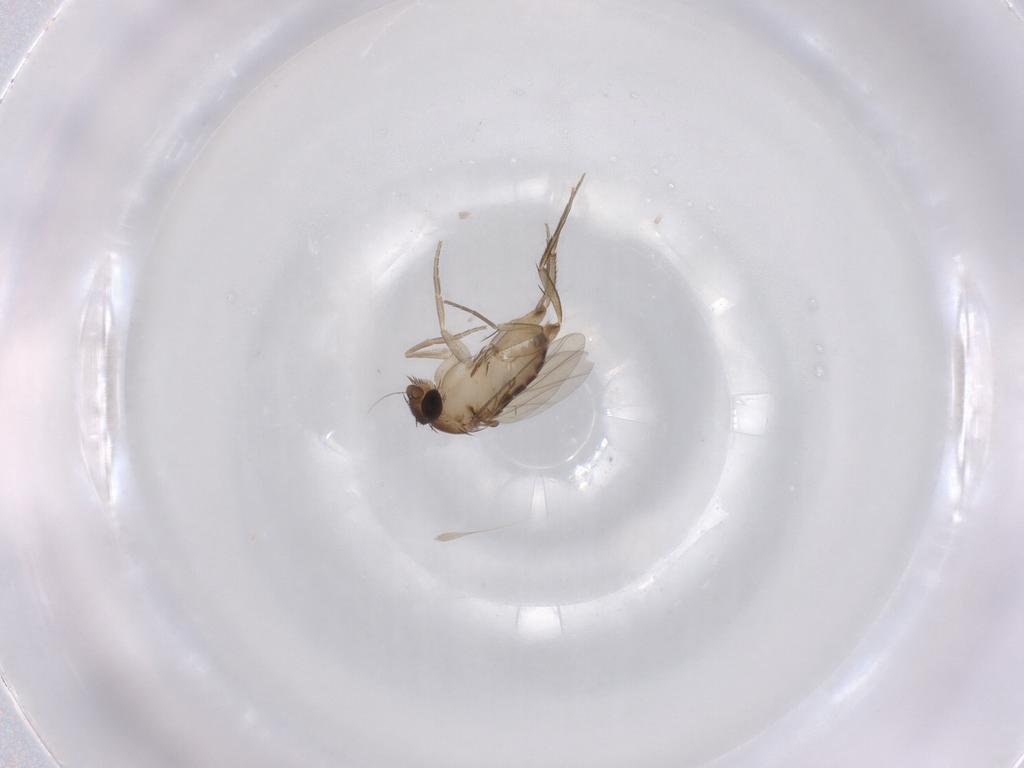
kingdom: Animalia
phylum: Arthropoda
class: Insecta
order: Diptera
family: Phoridae
